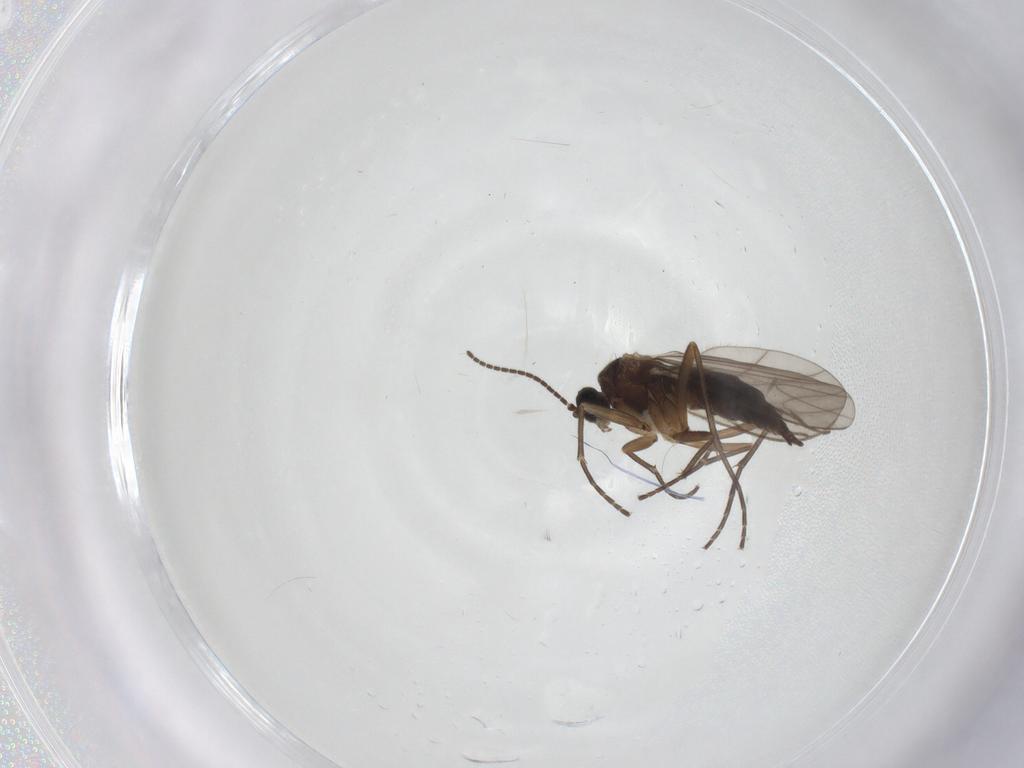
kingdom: Animalia
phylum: Arthropoda
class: Insecta
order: Diptera
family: Sciaridae
